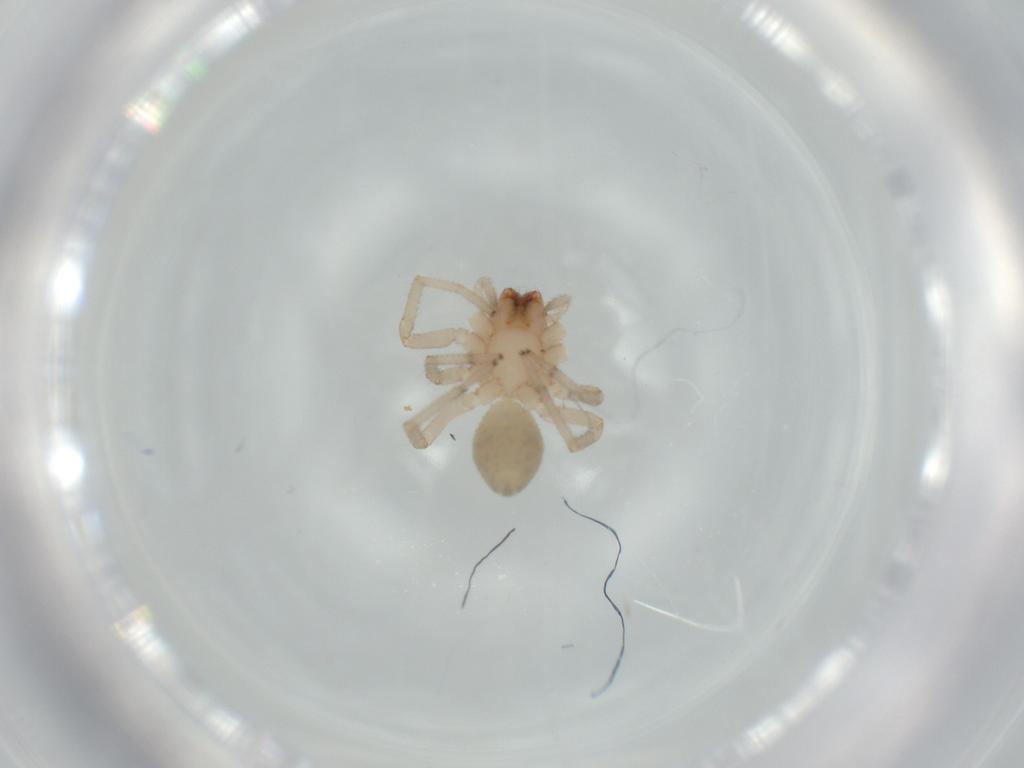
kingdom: Animalia
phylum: Arthropoda
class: Arachnida
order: Araneae
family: Trachelidae
